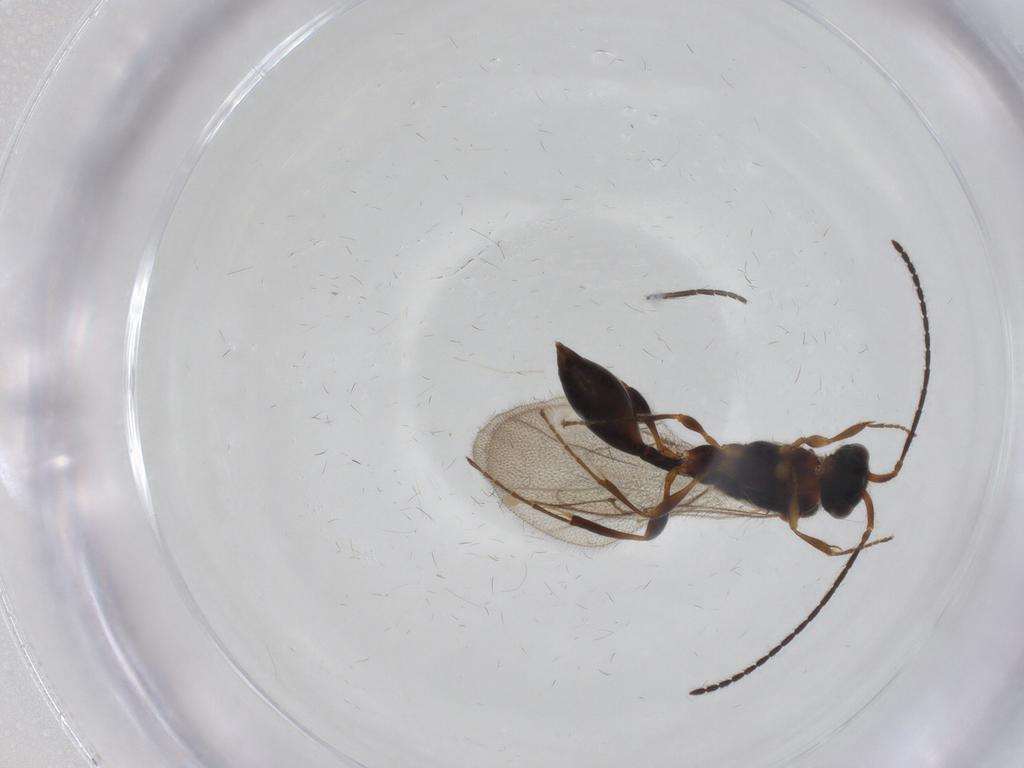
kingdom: Animalia
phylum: Arthropoda
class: Insecta
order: Hymenoptera
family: Diapriidae
